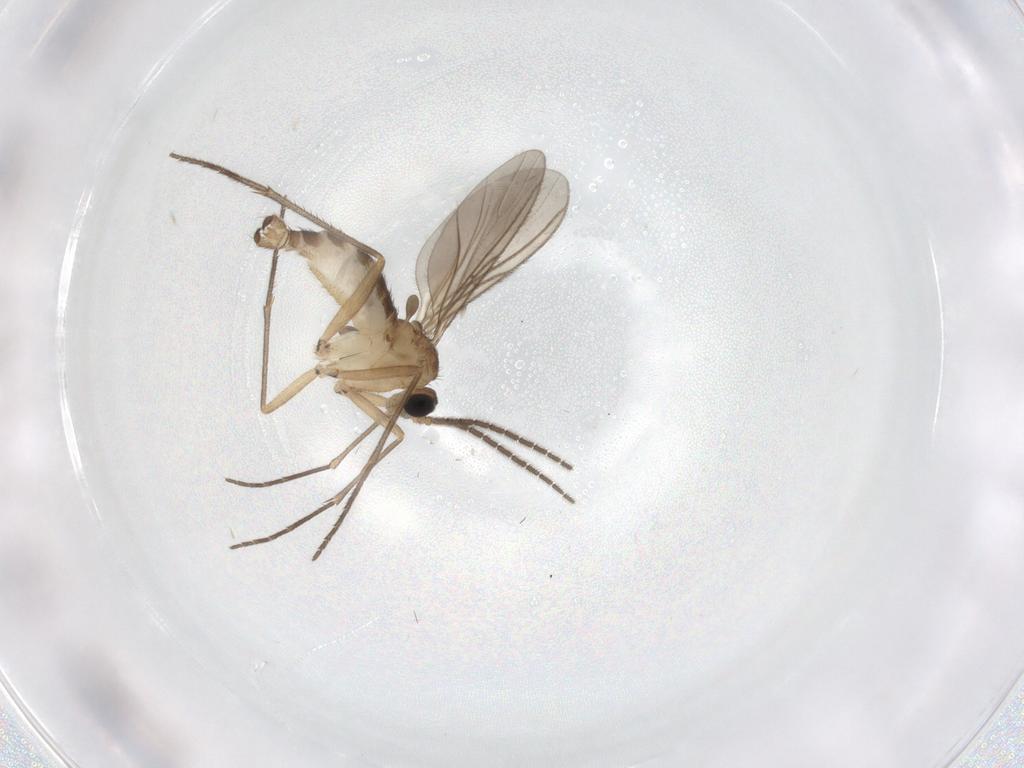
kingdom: Animalia
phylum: Arthropoda
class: Insecta
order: Diptera
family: Sciaridae
